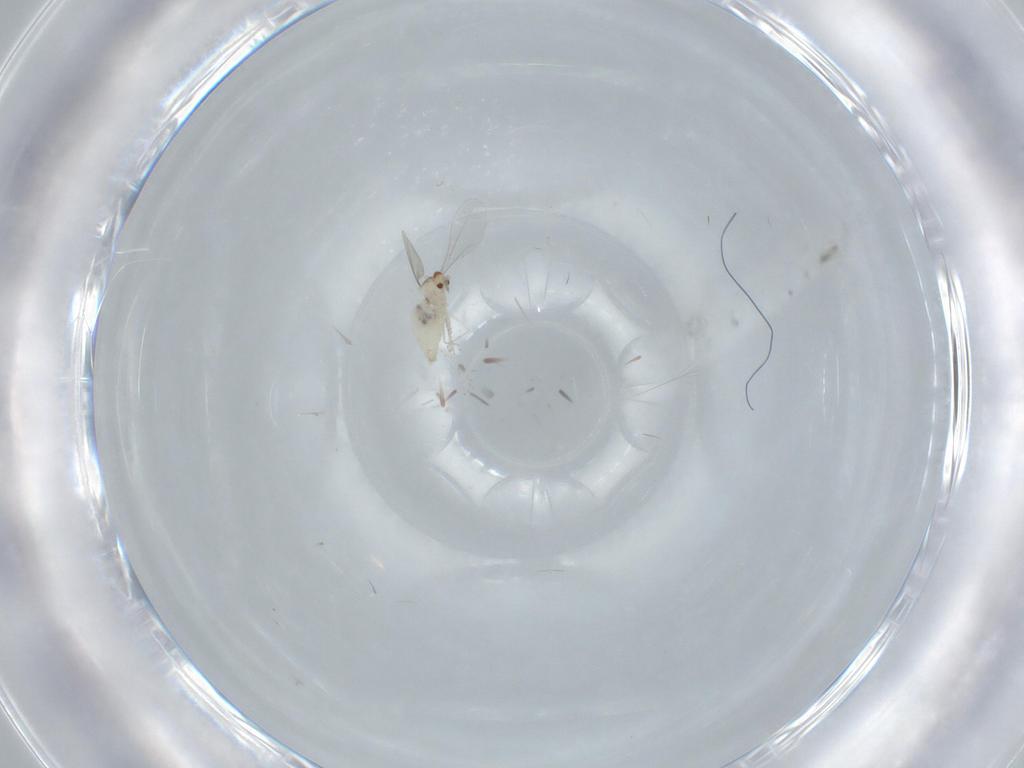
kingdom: Animalia
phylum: Arthropoda
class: Insecta
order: Diptera
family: Cecidomyiidae
